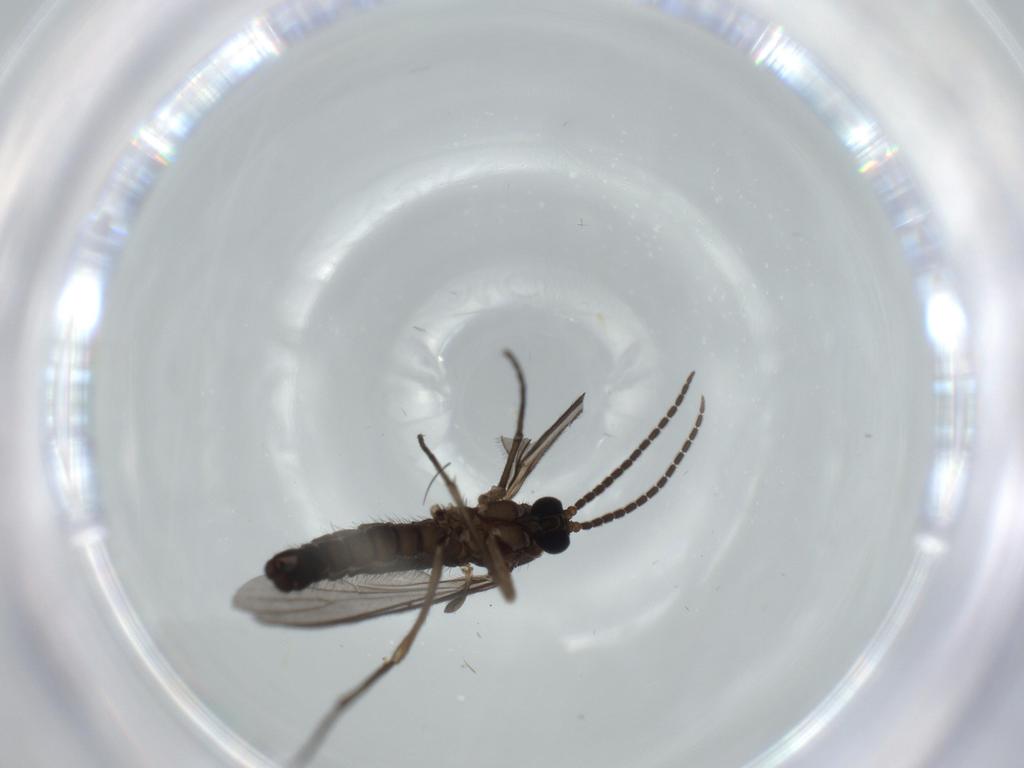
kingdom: Animalia
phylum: Arthropoda
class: Insecta
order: Diptera
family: Sciaridae
